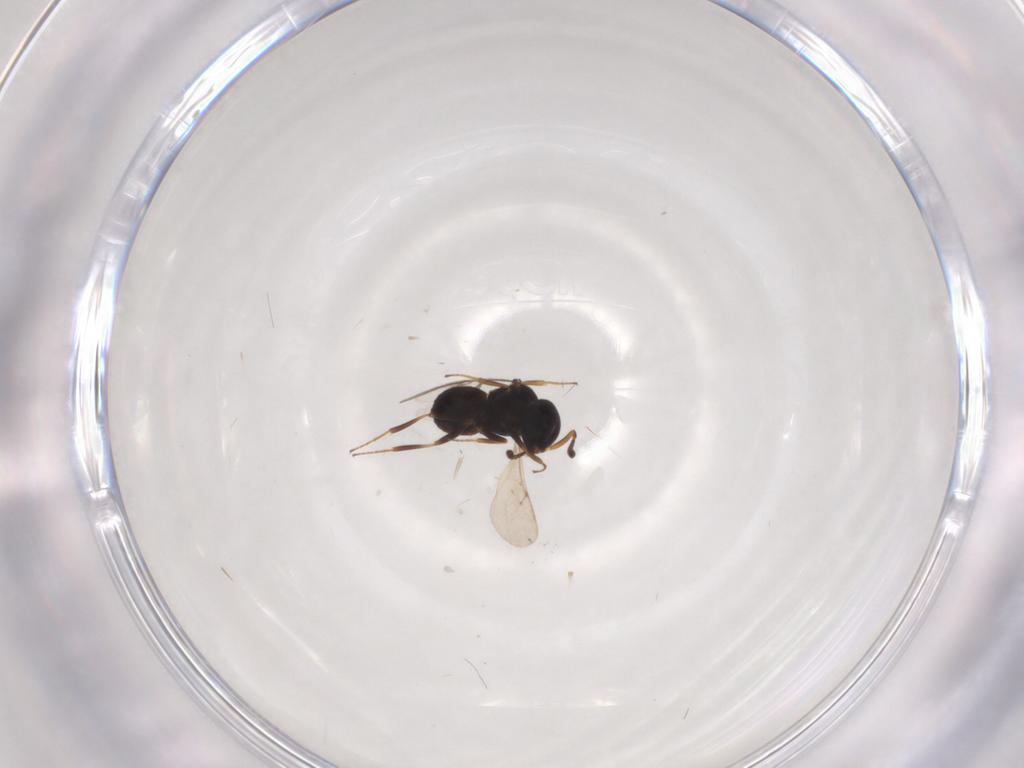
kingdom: Animalia
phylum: Arthropoda
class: Insecta
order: Hymenoptera
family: Scelionidae
